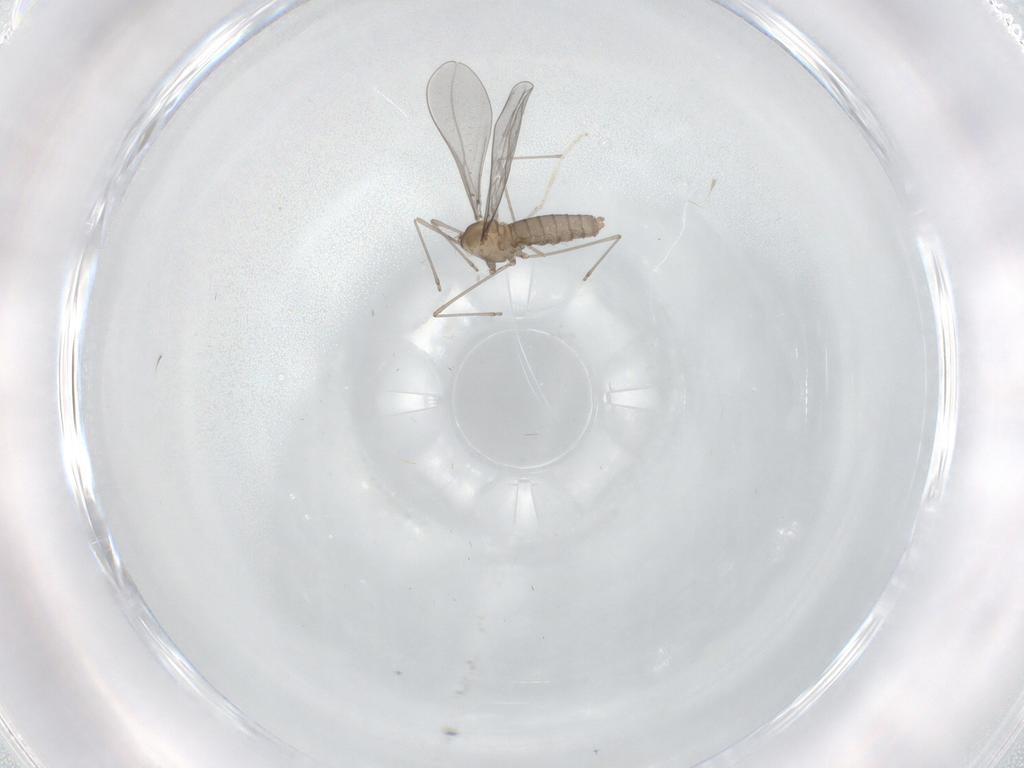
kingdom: Animalia
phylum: Arthropoda
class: Insecta
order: Diptera
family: Cecidomyiidae
